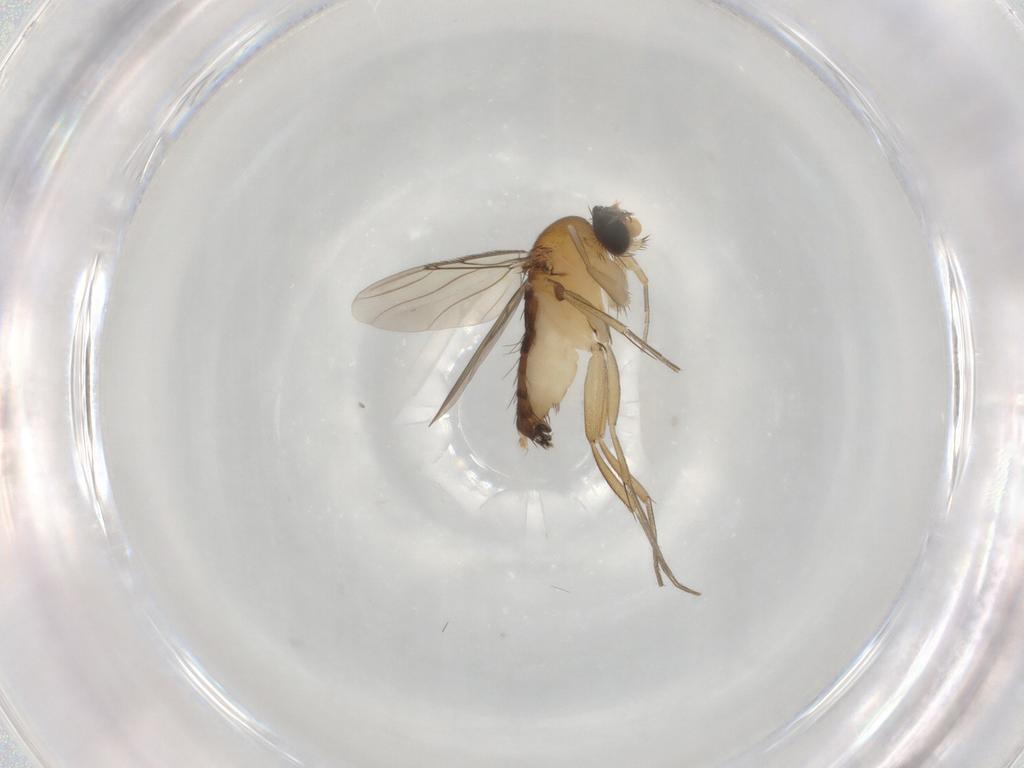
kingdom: Animalia
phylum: Arthropoda
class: Insecta
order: Diptera
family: Phoridae
